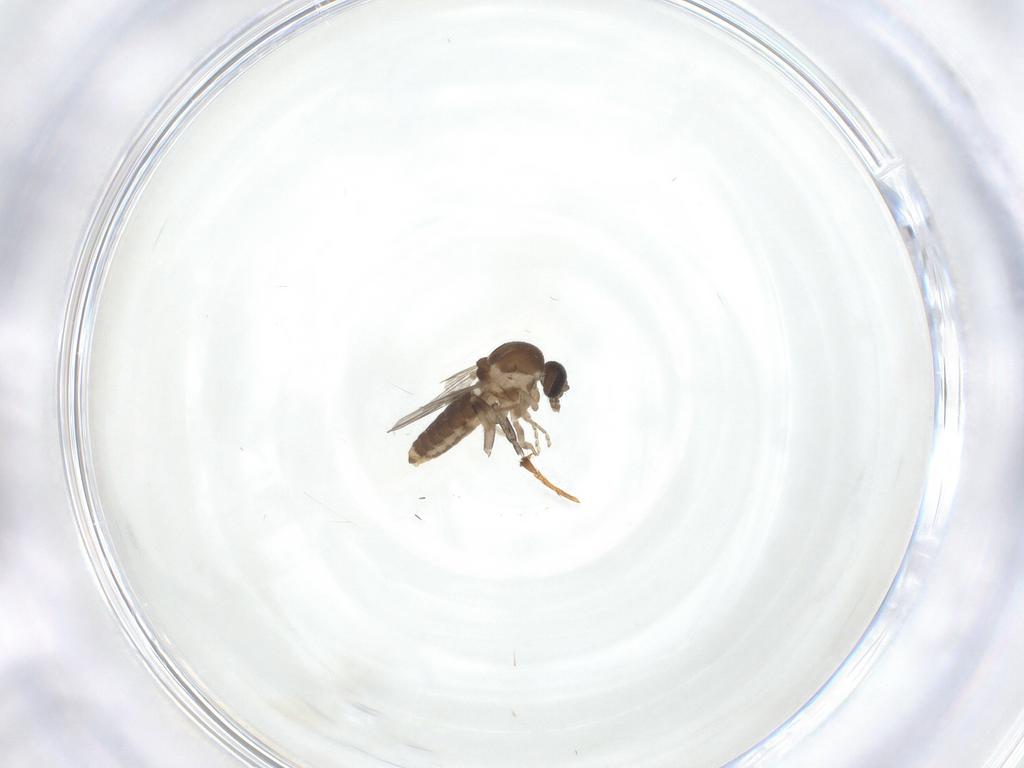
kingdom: Animalia
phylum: Arthropoda
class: Insecta
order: Diptera
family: Psychodidae
